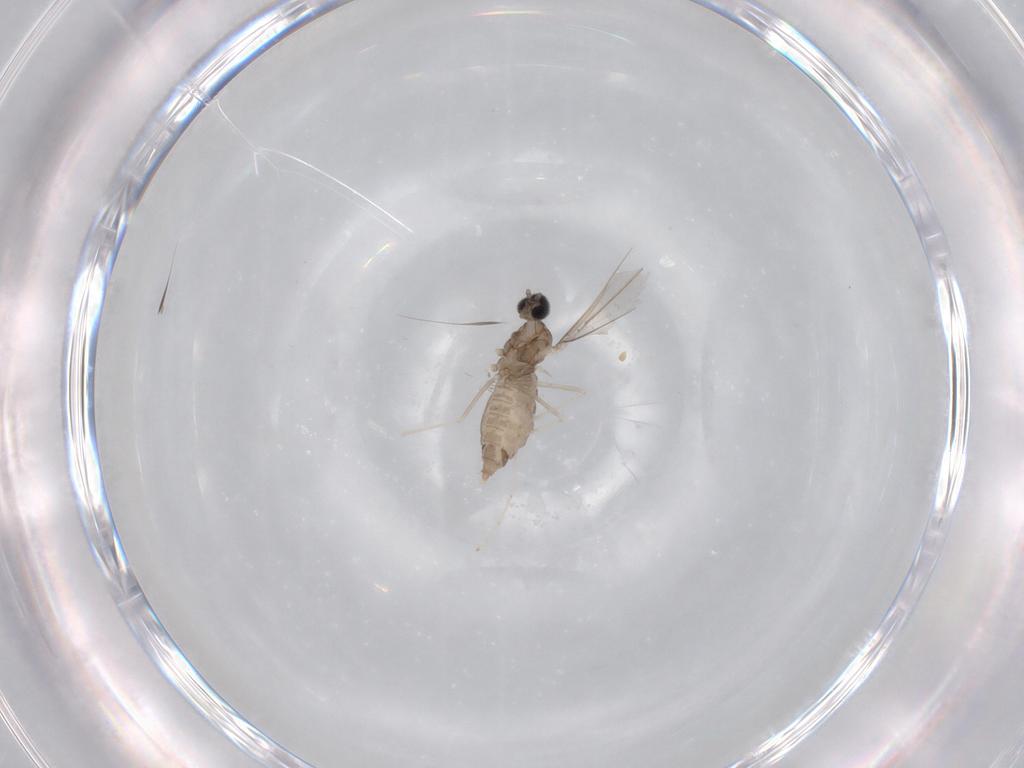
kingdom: Animalia
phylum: Arthropoda
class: Insecta
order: Diptera
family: Cecidomyiidae
